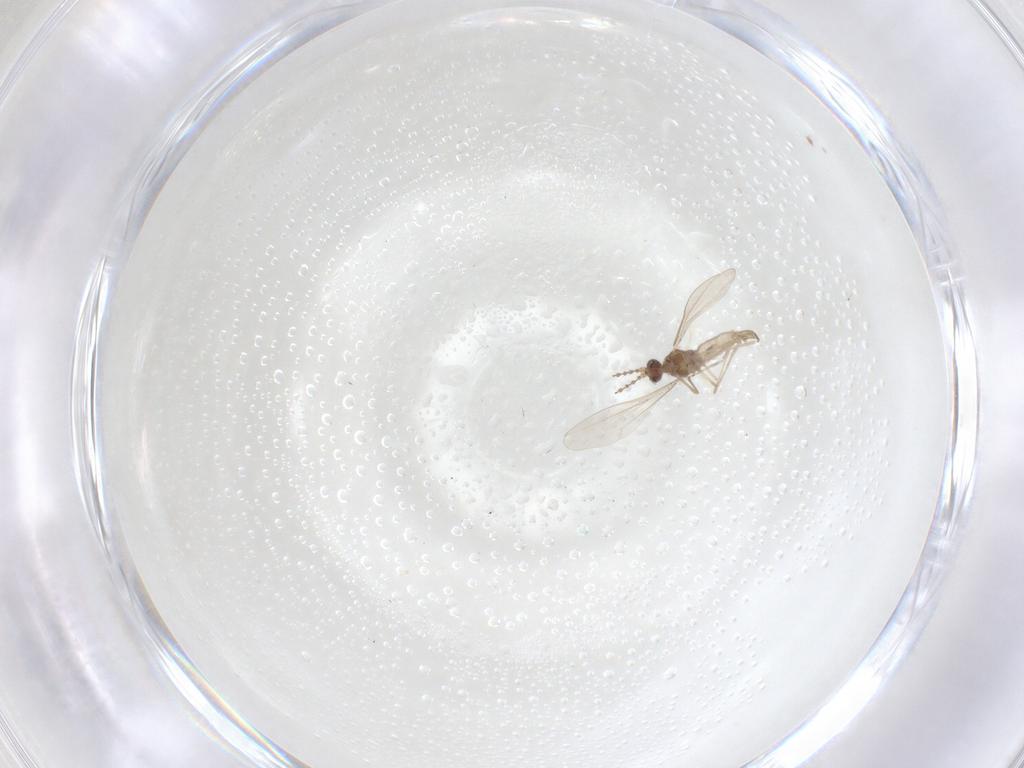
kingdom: Animalia
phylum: Arthropoda
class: Insecta
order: Diptera
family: Cecidomyiidae
